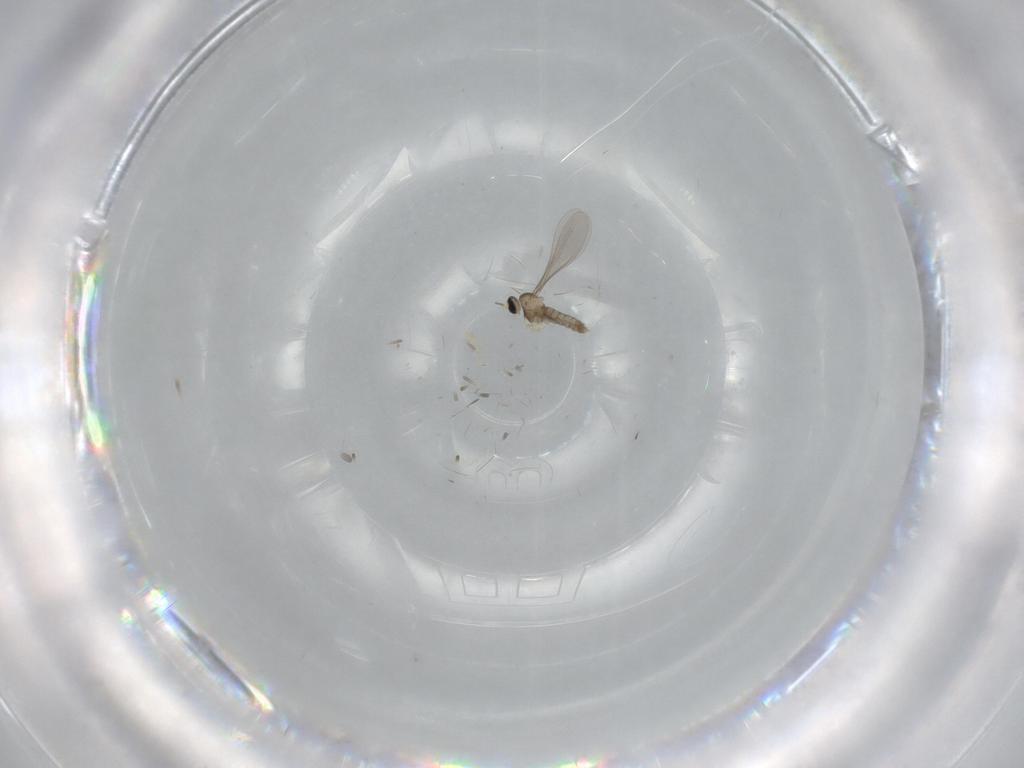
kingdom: Animalia
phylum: Arthropoda
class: Insecta
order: Diptera
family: Cecidomyiidae
